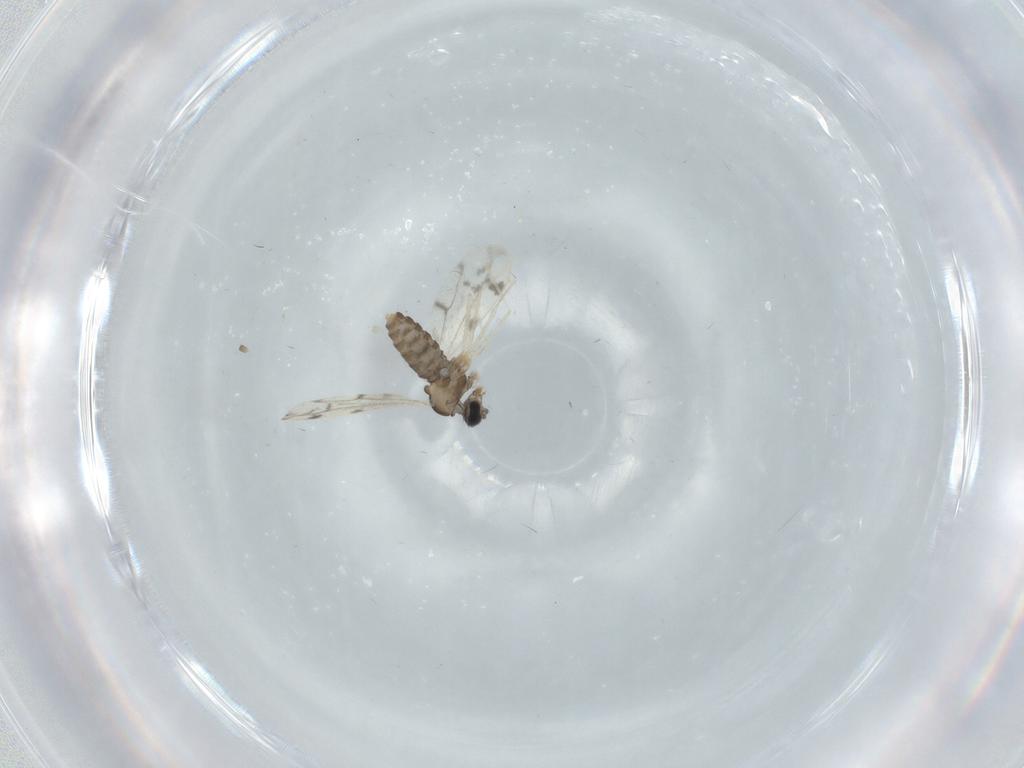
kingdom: Animalia
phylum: Arthropoda
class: Insecta
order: Diptera
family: Cecidomyiidae
